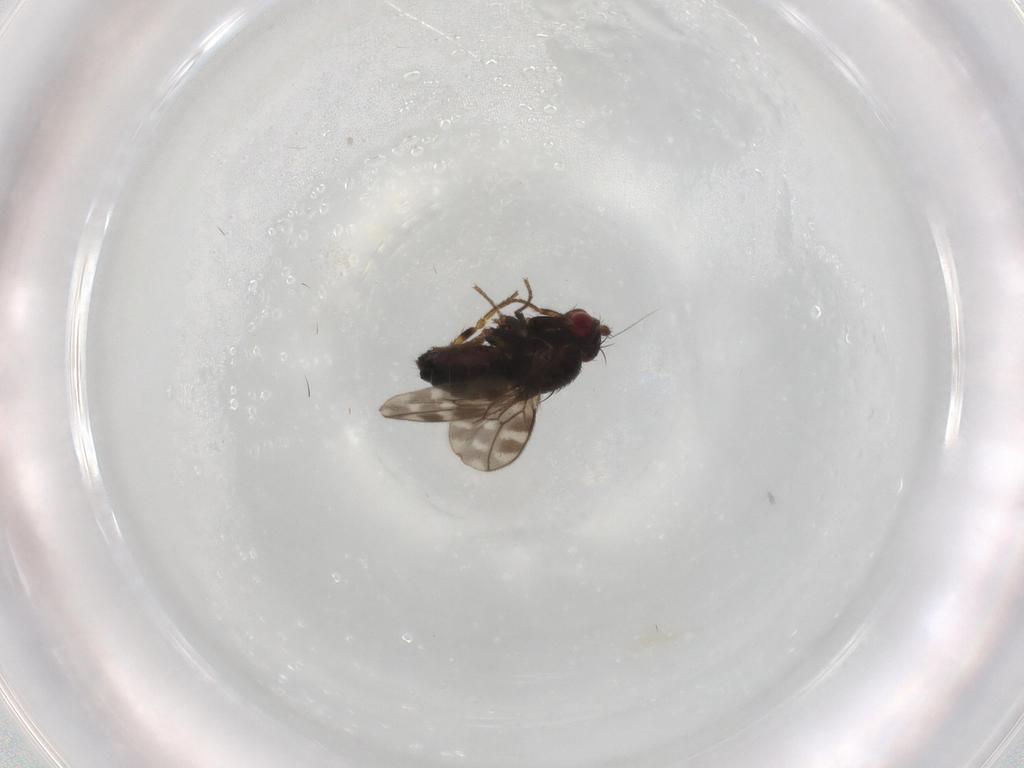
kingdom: Animalia
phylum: Arthropoda
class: Insecta
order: Diptera
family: Sphaeroceridae
